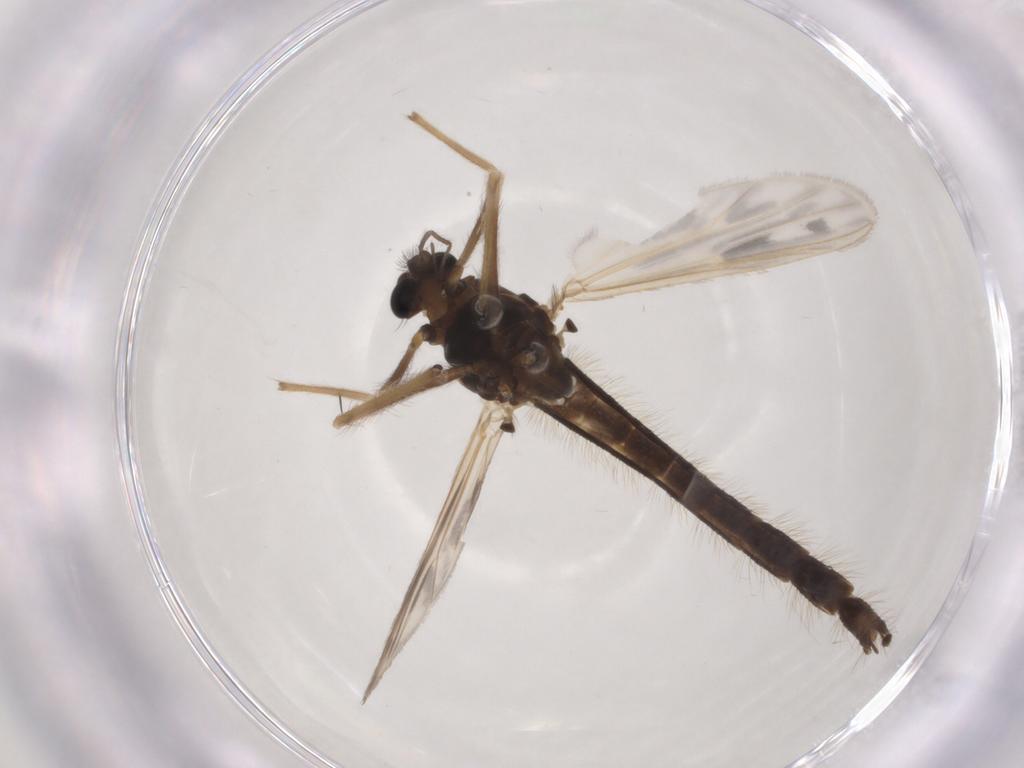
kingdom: Animalia
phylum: Arthropoda
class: Insecta
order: Diptera
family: Chironomidae
